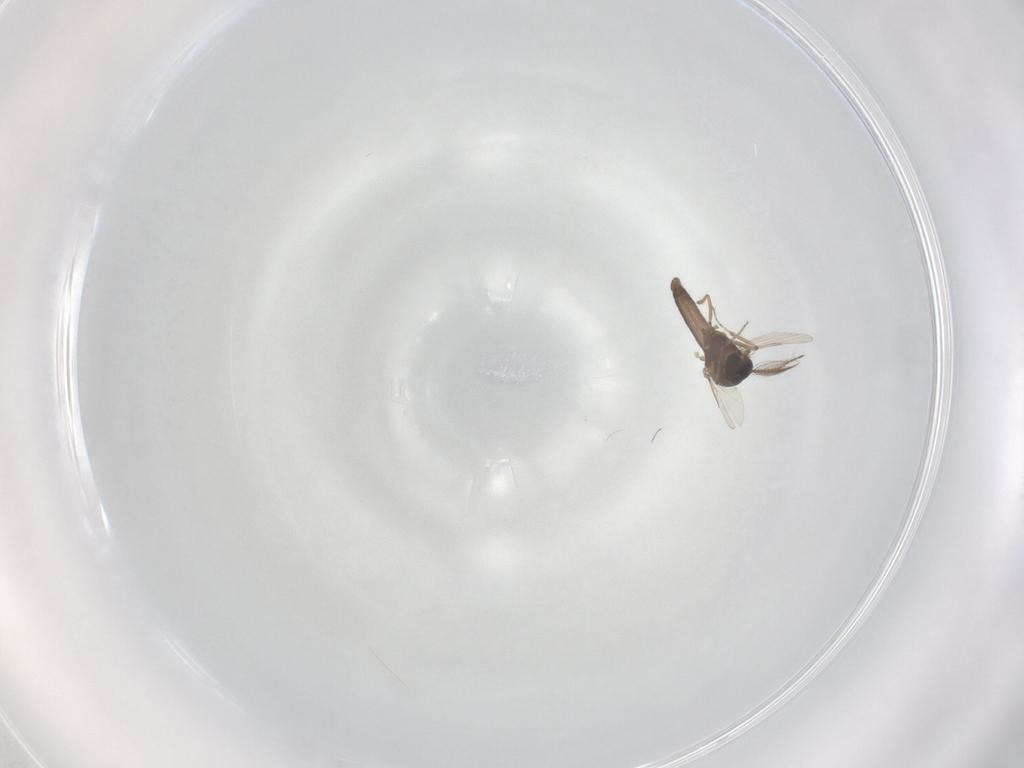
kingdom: Animalia
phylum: Arthropoda
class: Insecta
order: Diptera
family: Ceratopogonidae
